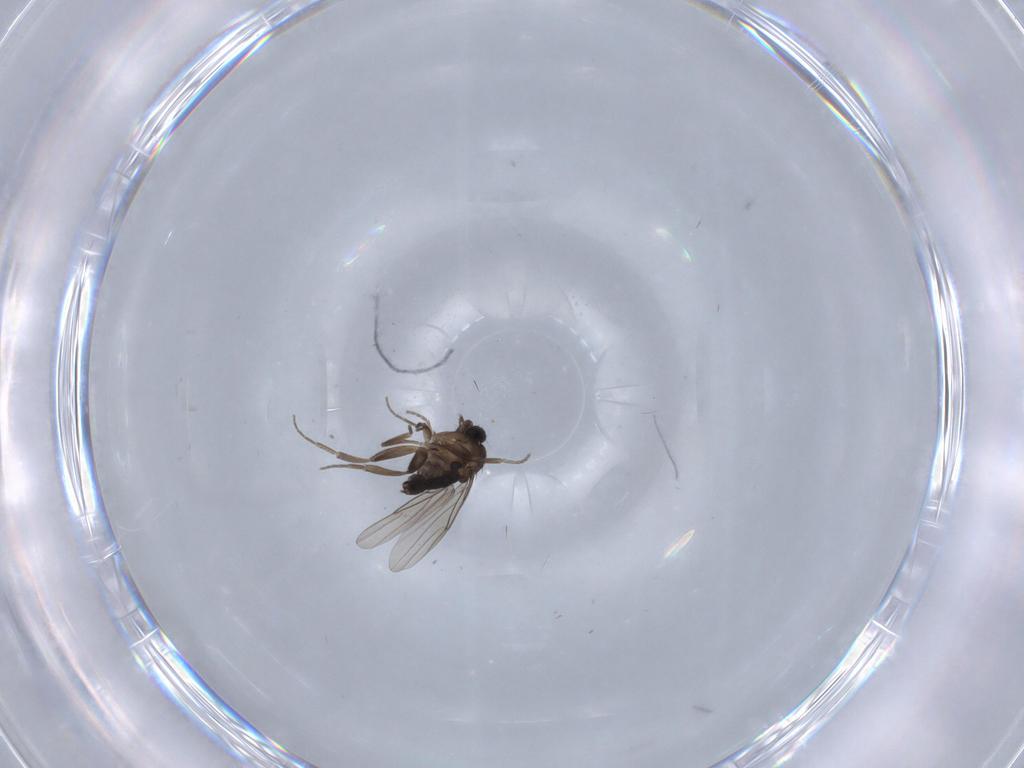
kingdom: Animalia
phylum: Arthropoda
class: Insecta
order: Diptera
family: Phoridae
